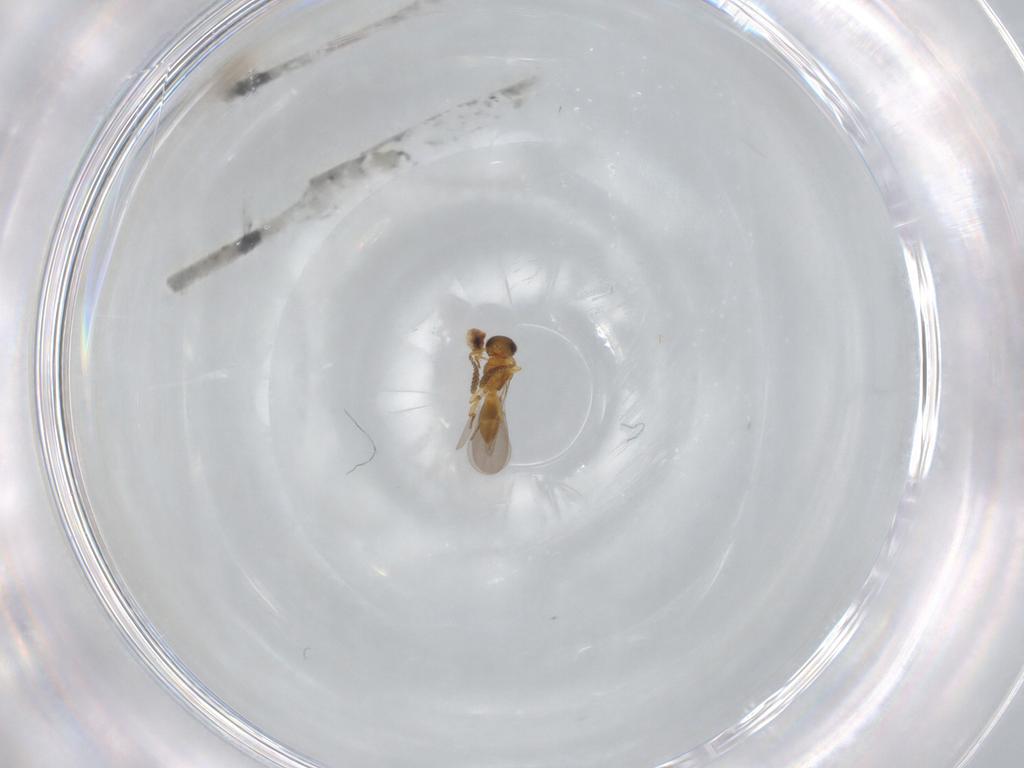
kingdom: Animalia
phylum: Arthropoda
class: Insecta
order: Hymenoptera
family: Platygastridae
